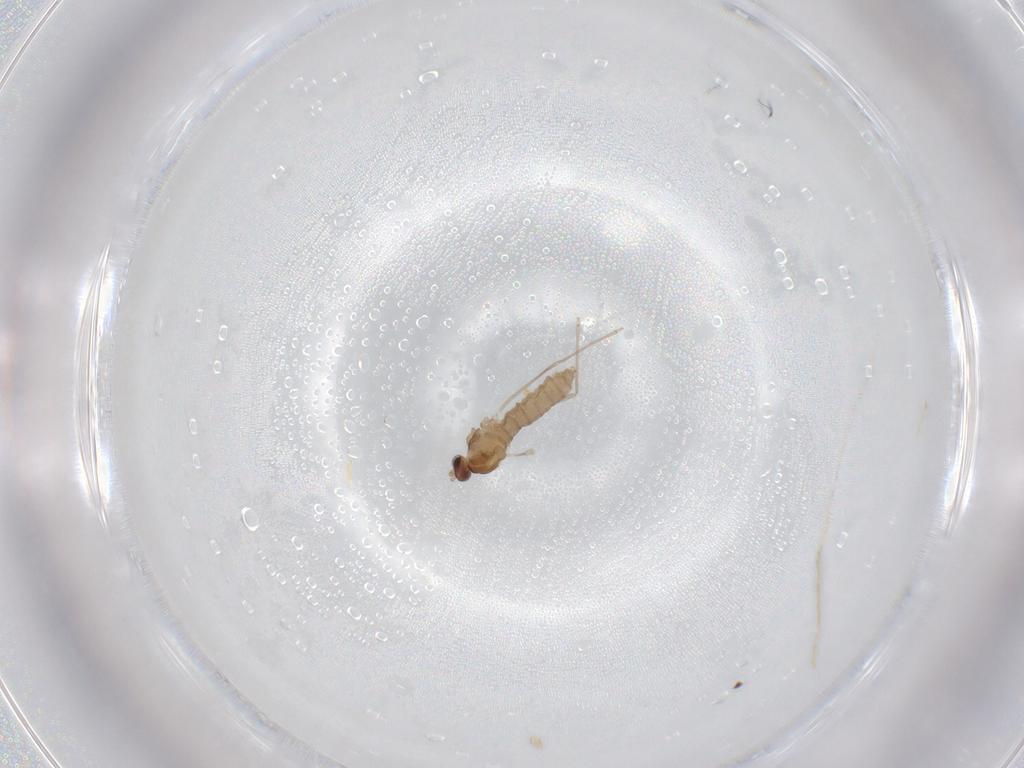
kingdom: Animalia
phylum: Arthropoda
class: Insecta
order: Diptera
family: Cecidomyiidae
